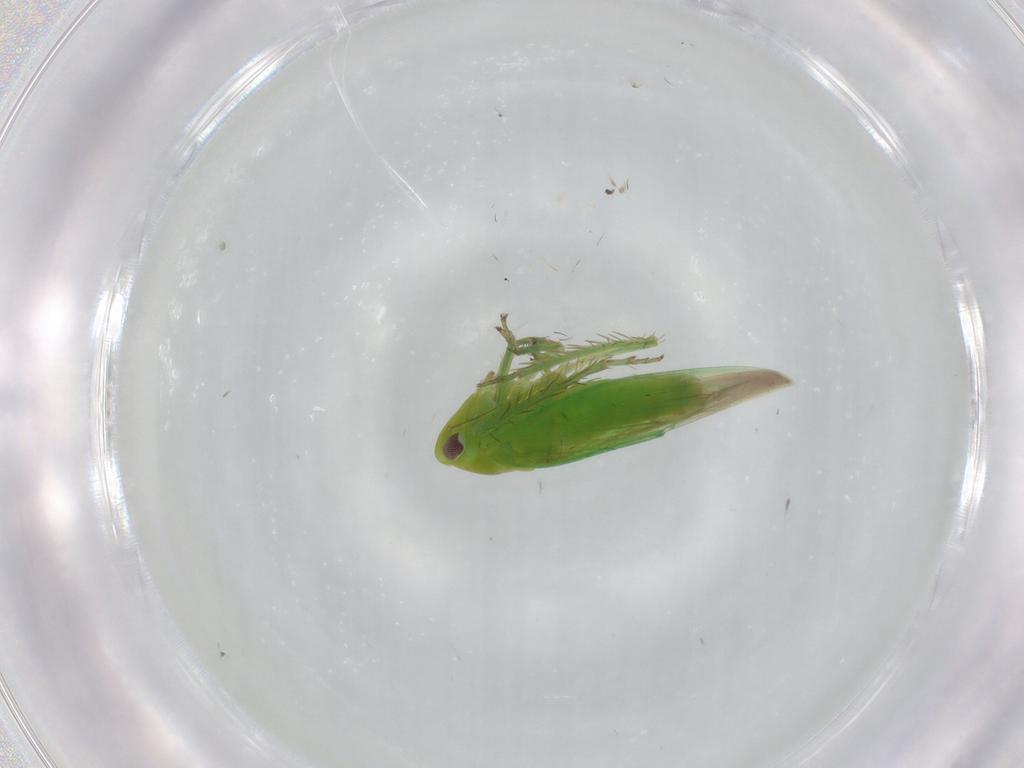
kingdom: Animalia
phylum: Arthropoda
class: Insecta
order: Hemiptera
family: Cicadellidae
